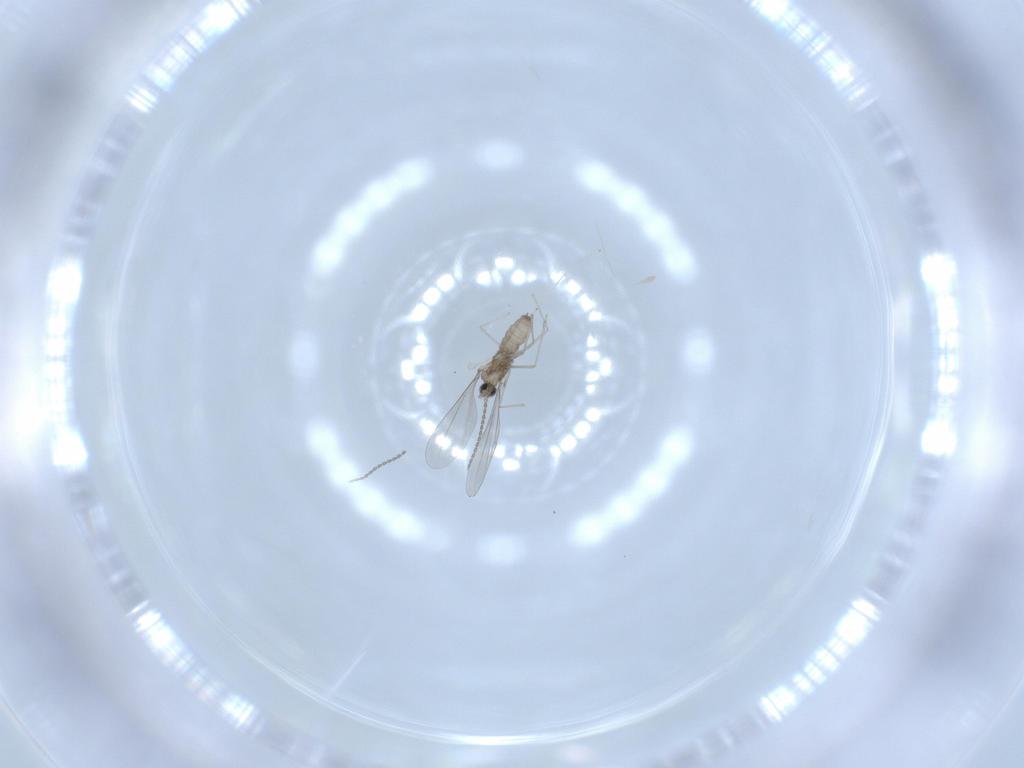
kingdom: Animalia
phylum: Arthropoda
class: Insecta
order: Diptera
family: Cecidomyiidae
